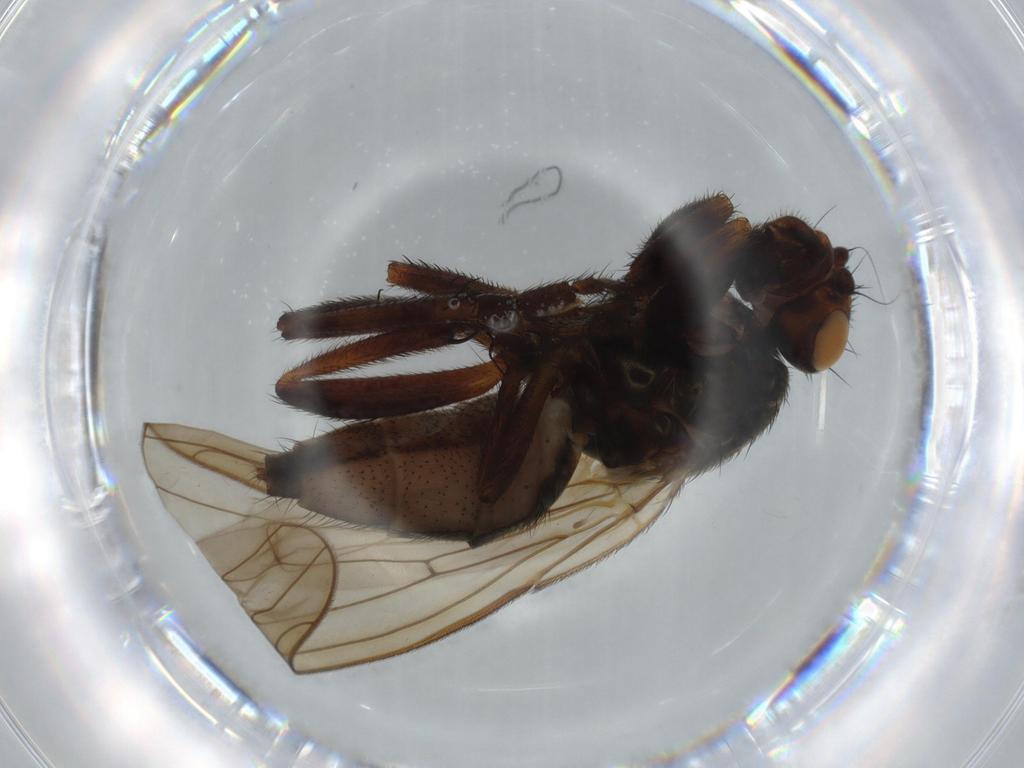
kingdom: Animalia
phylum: Arthropoda
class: Insecta
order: Diptera
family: Sphaeroceridae
